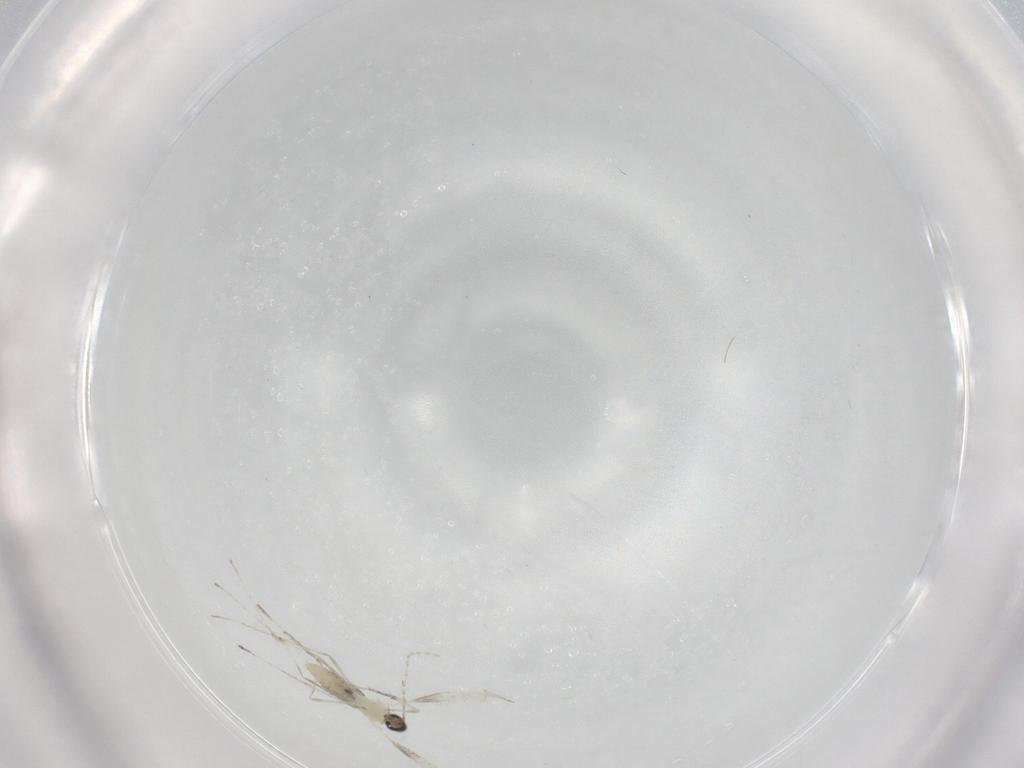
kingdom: Animalia
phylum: Arthropoda
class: Insecta
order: Diptera
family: Cecidomyiidae
